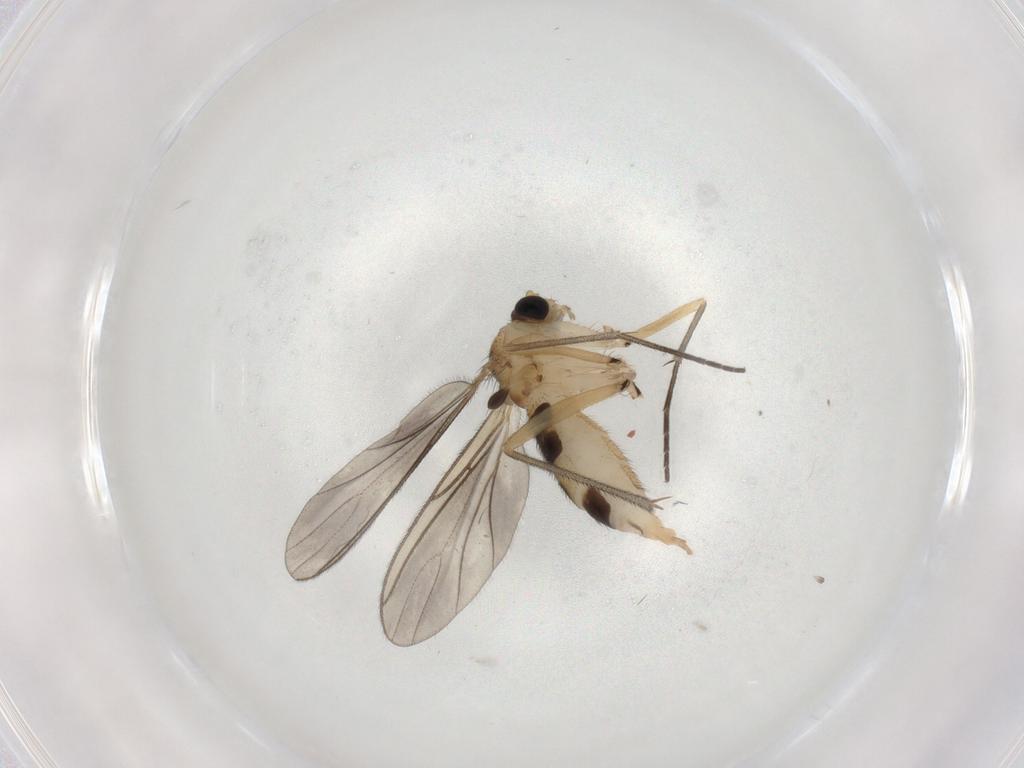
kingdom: Animalia
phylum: Arthropoda
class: Insecta
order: Diptera
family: Sciaridae
